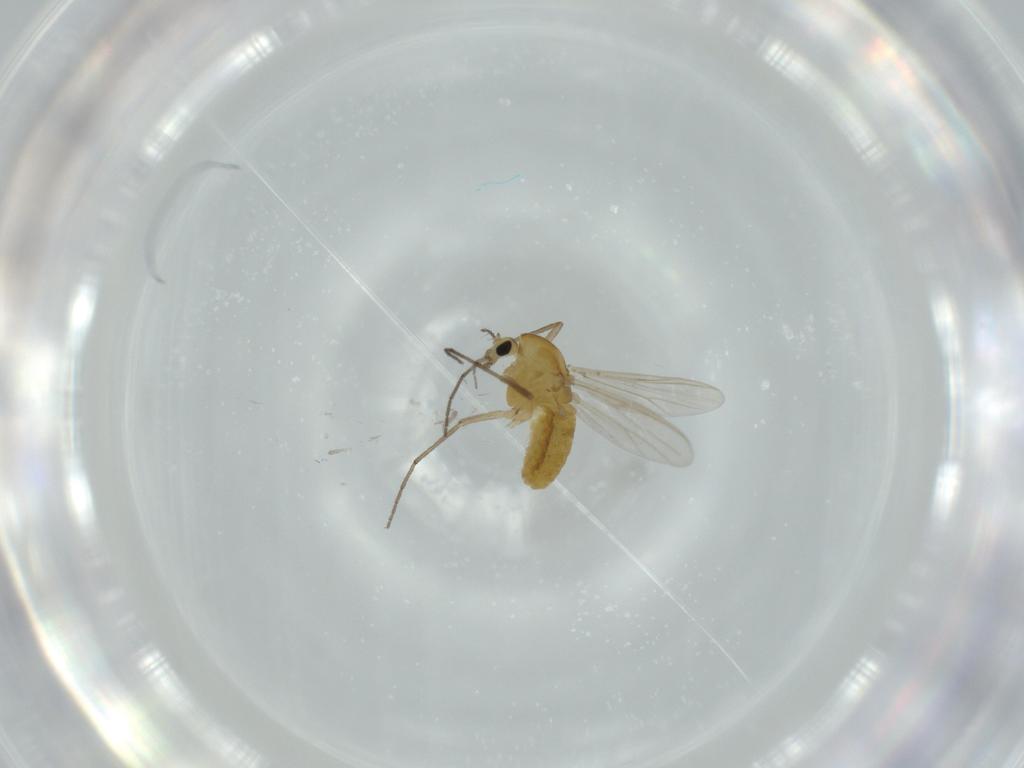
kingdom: Animalia
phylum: Arthropoda
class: Insecta
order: Diptera
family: Chironomidae
